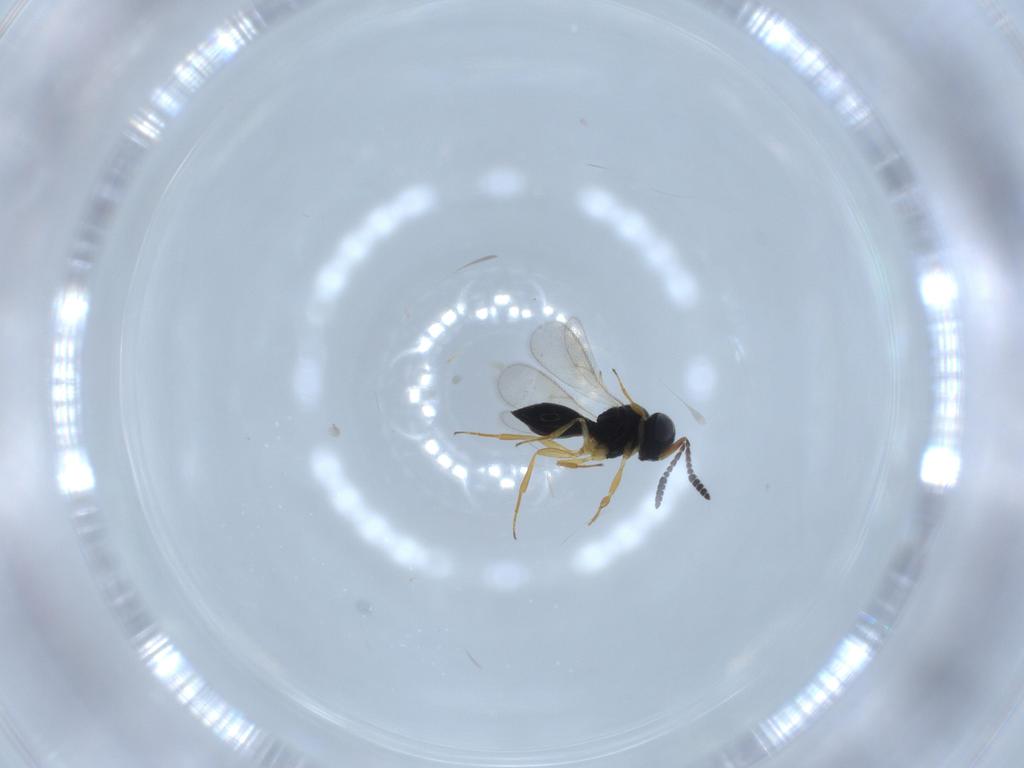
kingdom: Animalia
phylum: Arthropoda
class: Insecta
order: Hymenoptera
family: Scelionidae
